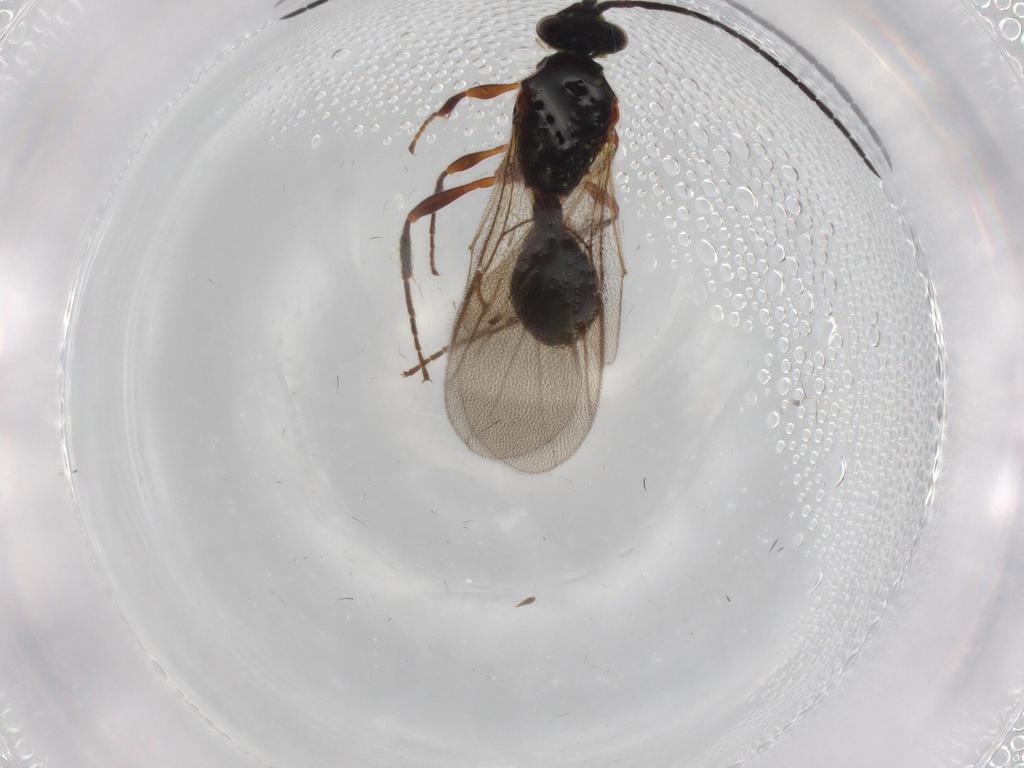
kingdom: Animalia
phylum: Arthropoda
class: Insecta
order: Hymenoptera
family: Diapriidae
